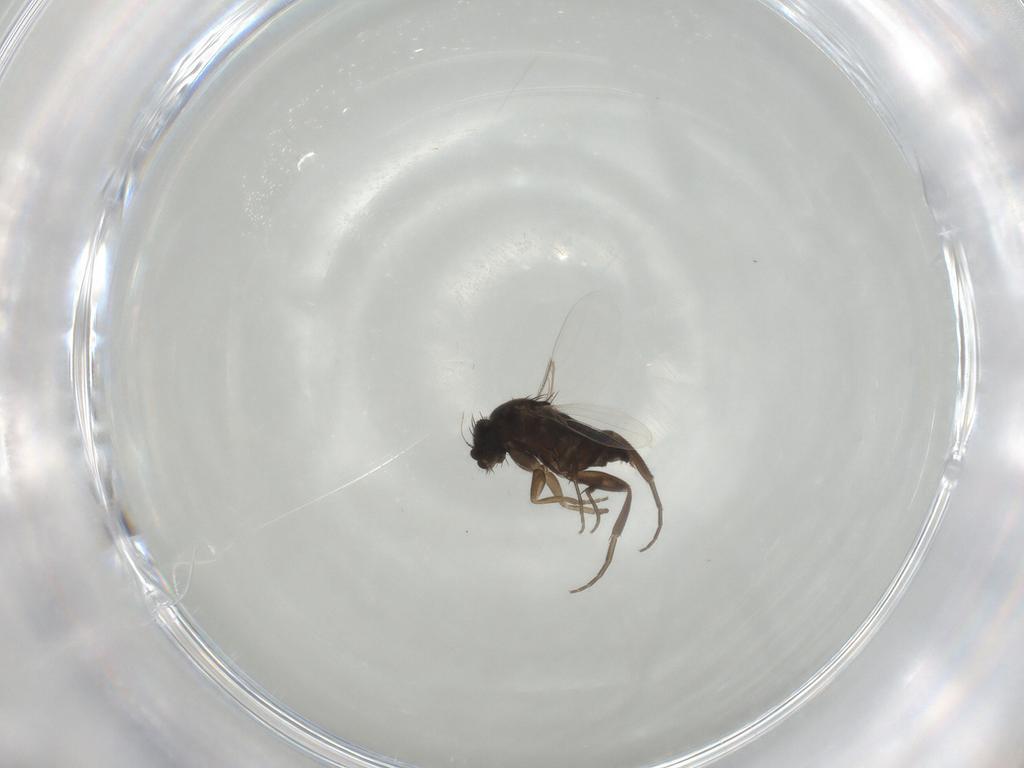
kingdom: Animalia
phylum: Arthropoda
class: Insecta
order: Diptera
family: Phoridae
